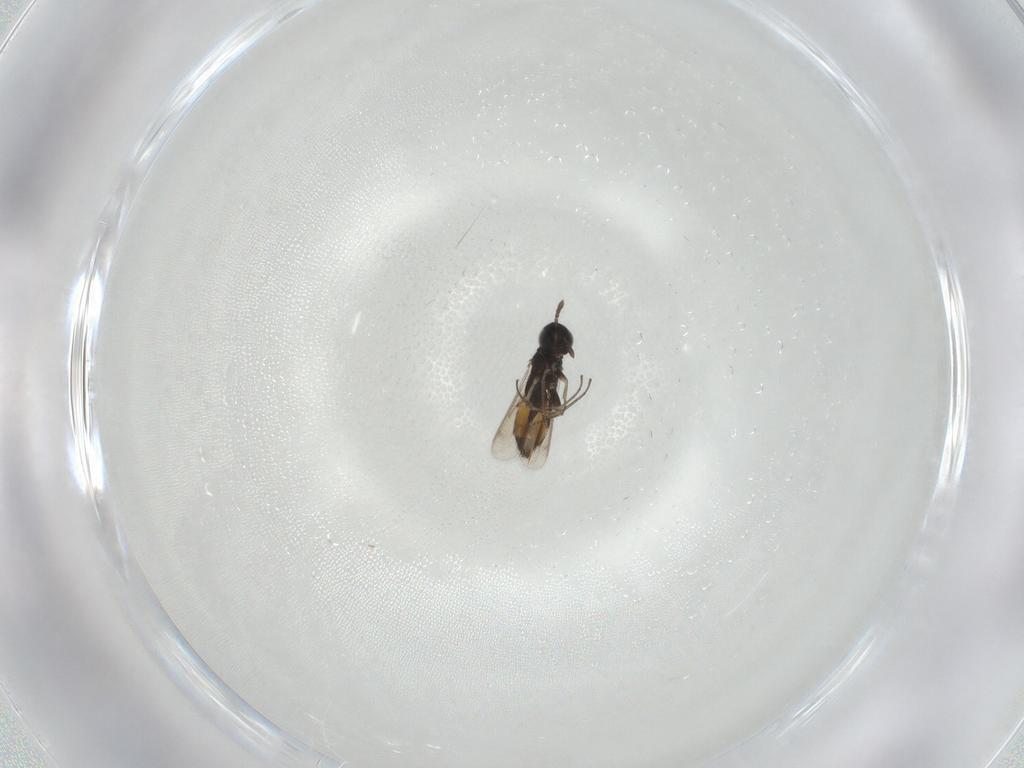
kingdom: Animalia
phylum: Arthropoda
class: Insecta
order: Hymenoptera
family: Eulophidae
